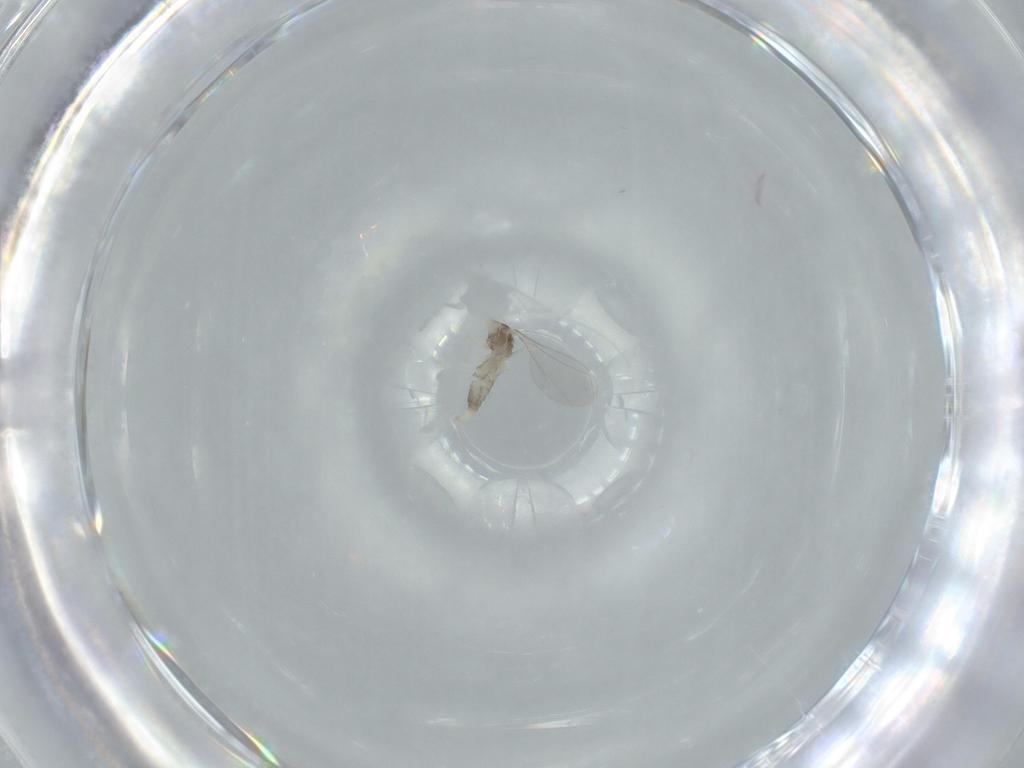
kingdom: Animalia
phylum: Arthropoda
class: Insecta
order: Diptera
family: Cecidomyiidae
